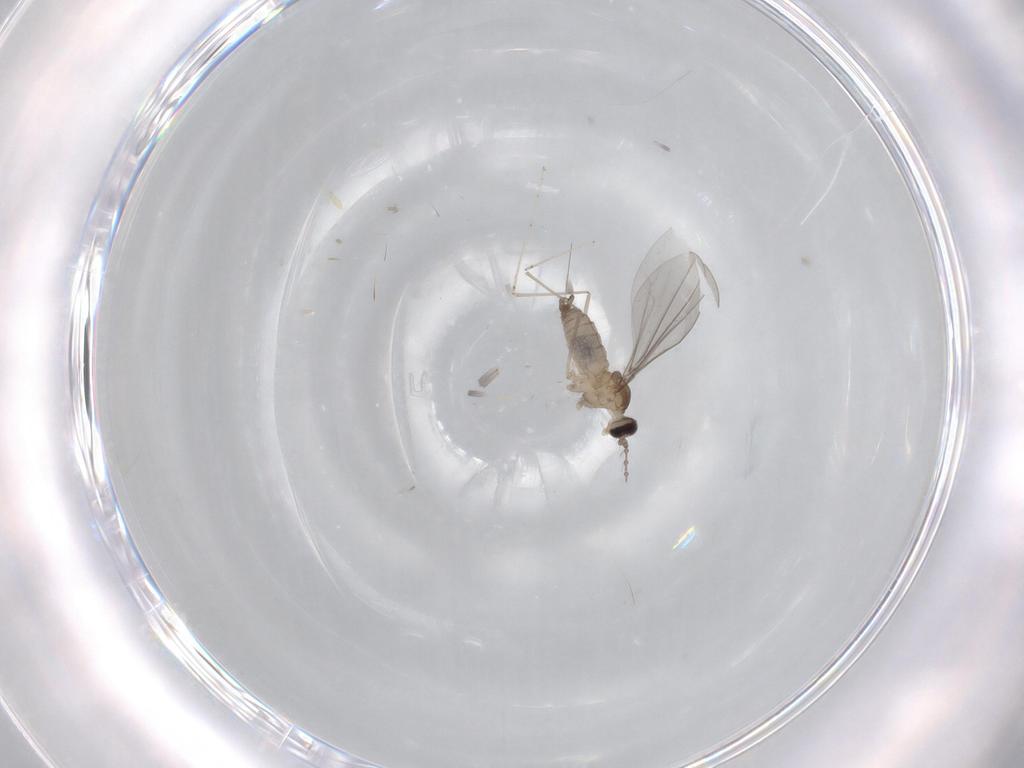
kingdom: Animalia
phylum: Arthropoda
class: Insecta
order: Diptera
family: Cecidomyiidae
